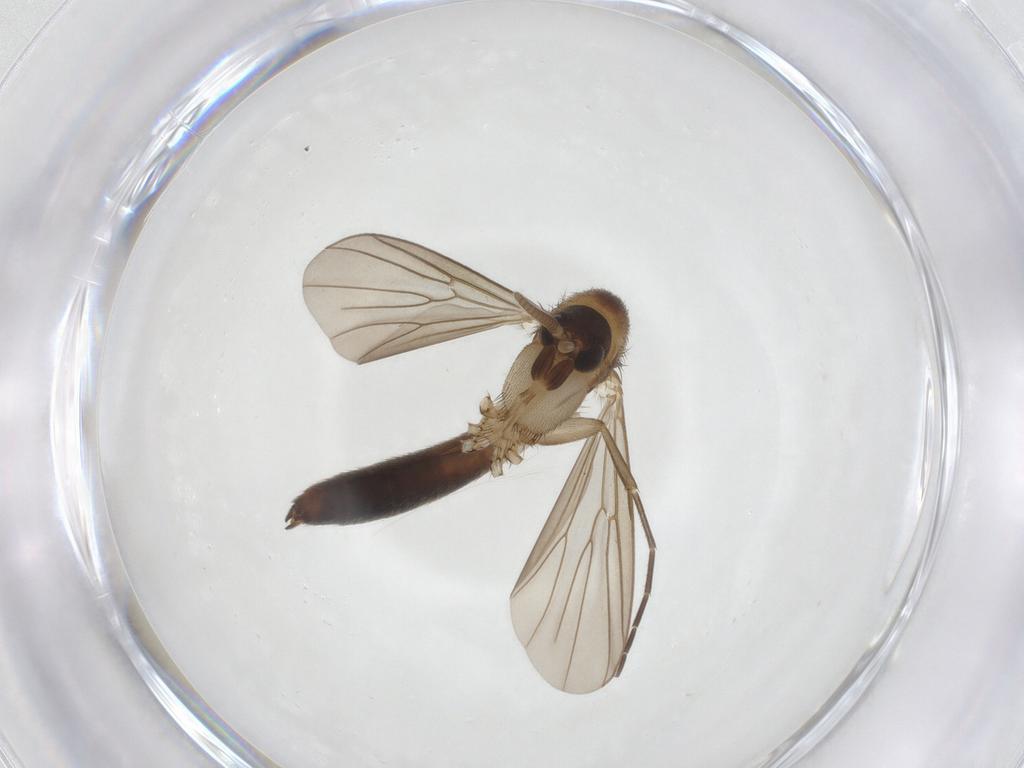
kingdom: Animalia
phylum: Arthropoda
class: Insecta
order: Diptera
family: Mycetophilidae
